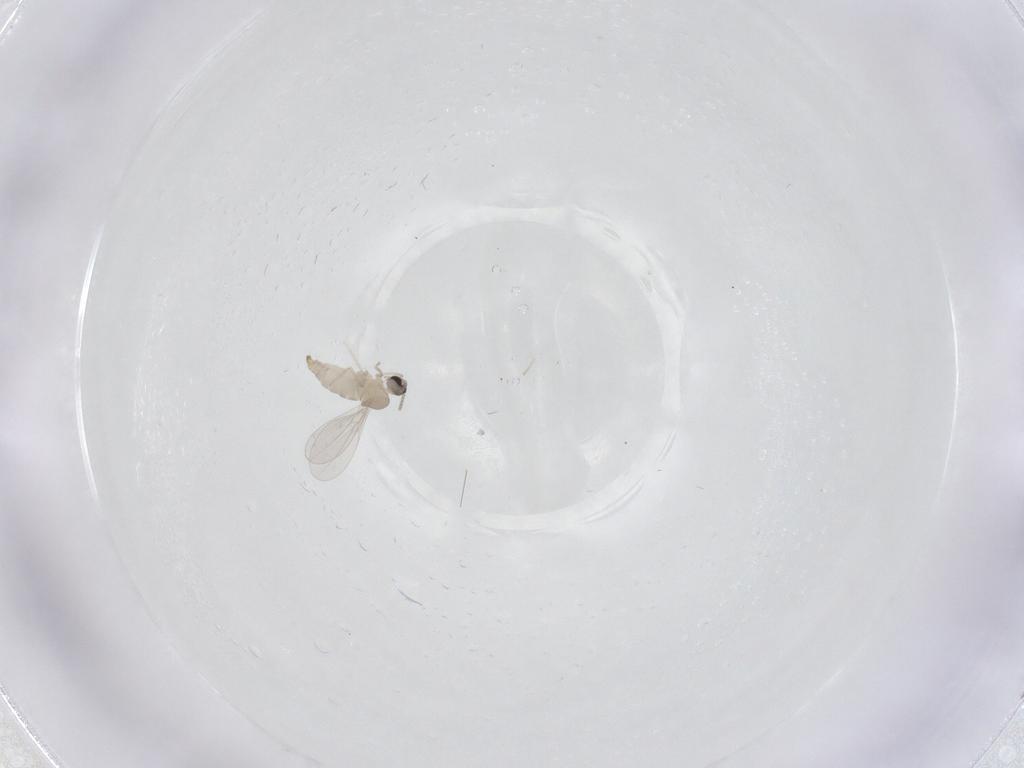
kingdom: Animalia
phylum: Arthropoda
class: Insecta
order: Diptera
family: Cecidomyiidae
